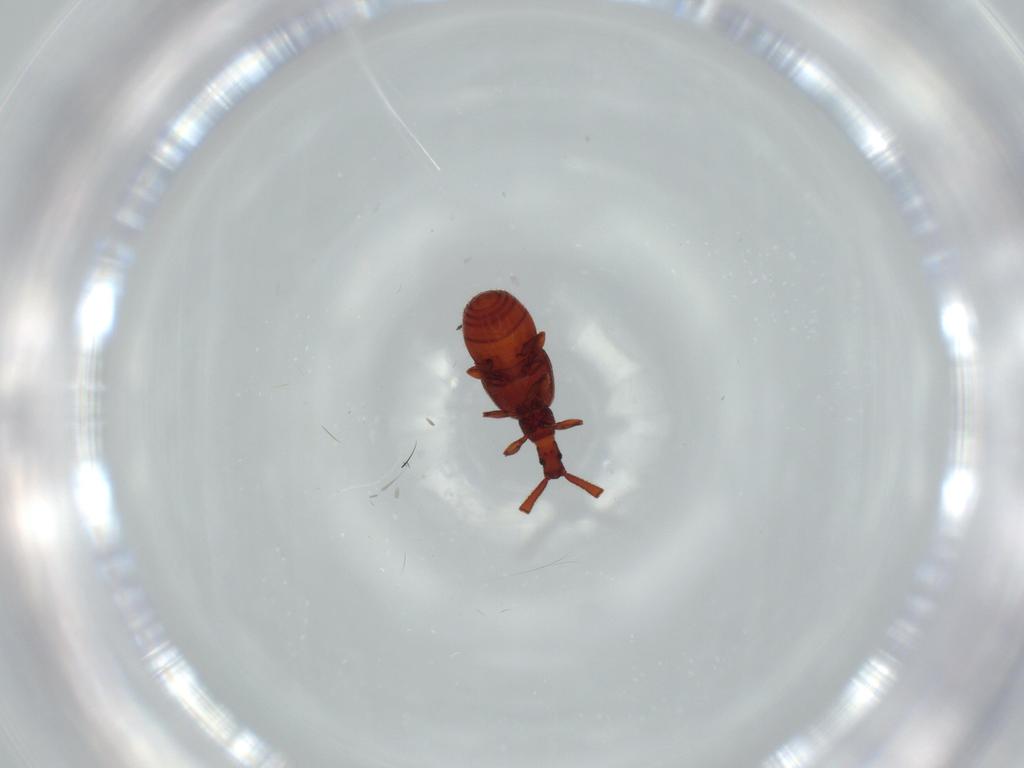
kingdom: Animalia
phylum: Arthropoda
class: Insecta
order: Coleoptera
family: Staphylinidae
